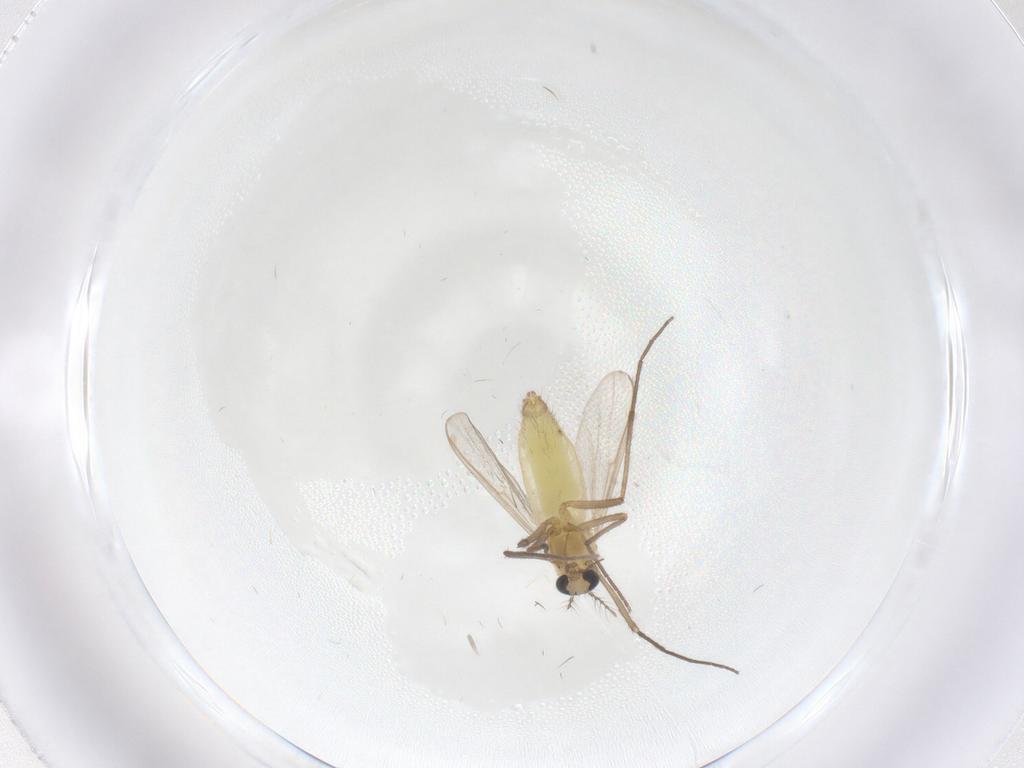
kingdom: Animalia
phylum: Arthropoda
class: Insecta
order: Diptera
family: Chironomidae
